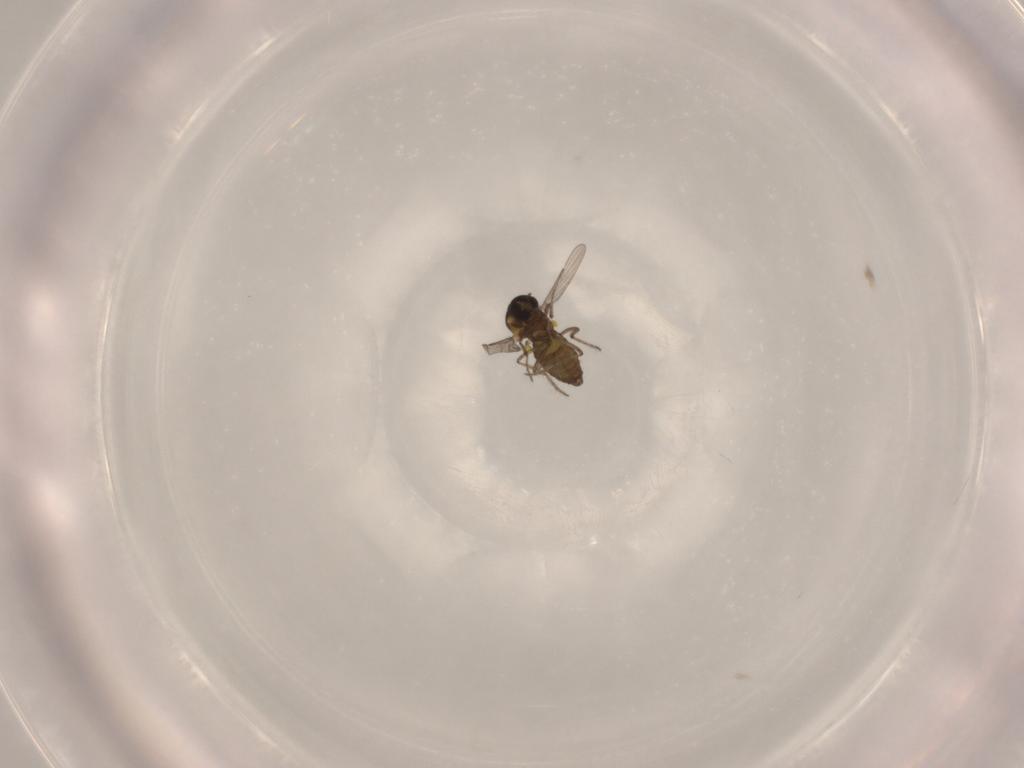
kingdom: Animalia
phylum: Arthropoda
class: Insecta
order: Diptera
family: Ceratopogonidae
